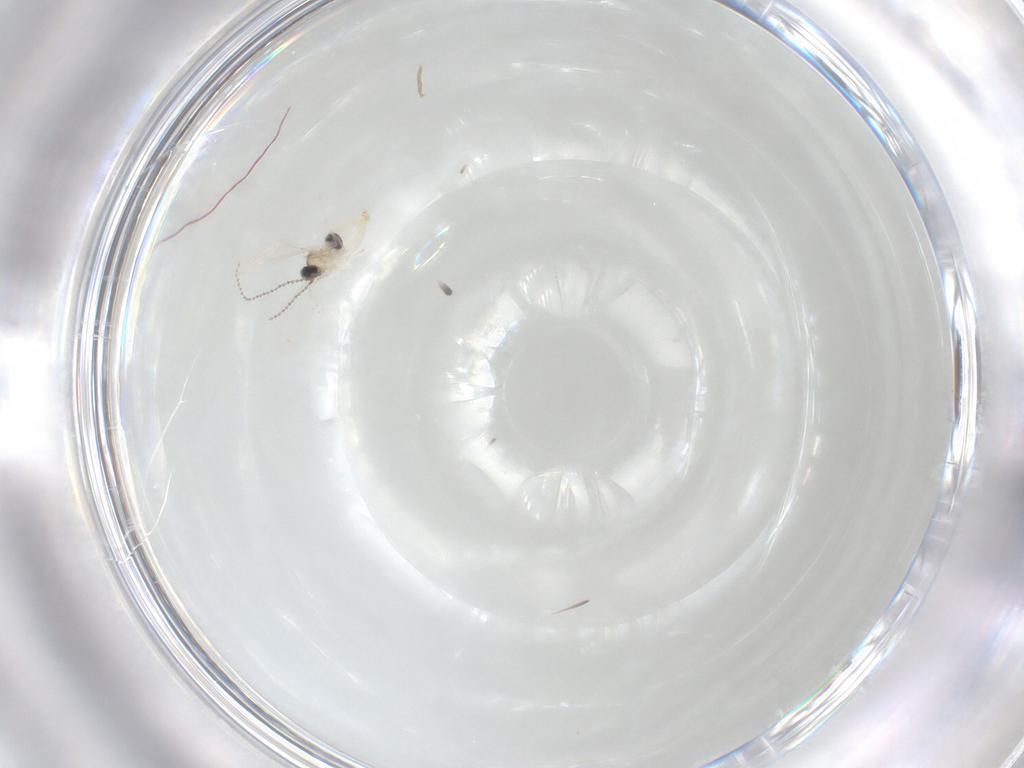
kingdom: Animalia
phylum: Arthropoda
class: Insecta
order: Diptera
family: Cecidomyiidae
